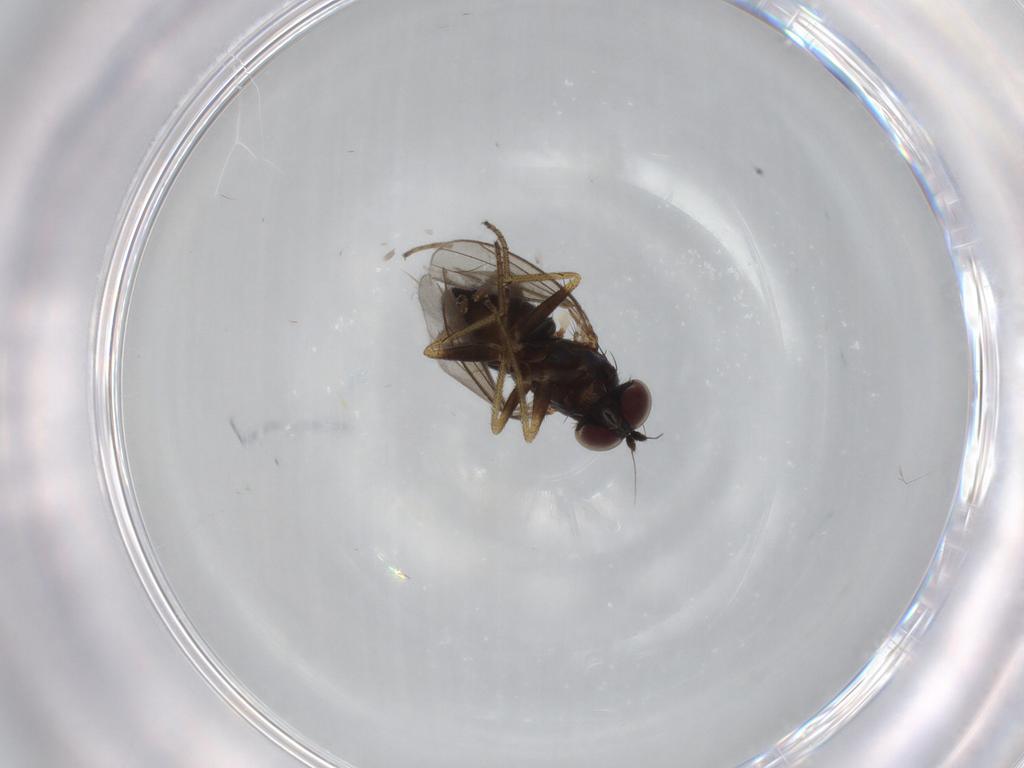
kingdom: Animalia
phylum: Arthropoda
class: Insecta
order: Diptera
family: Dolichopodidae
